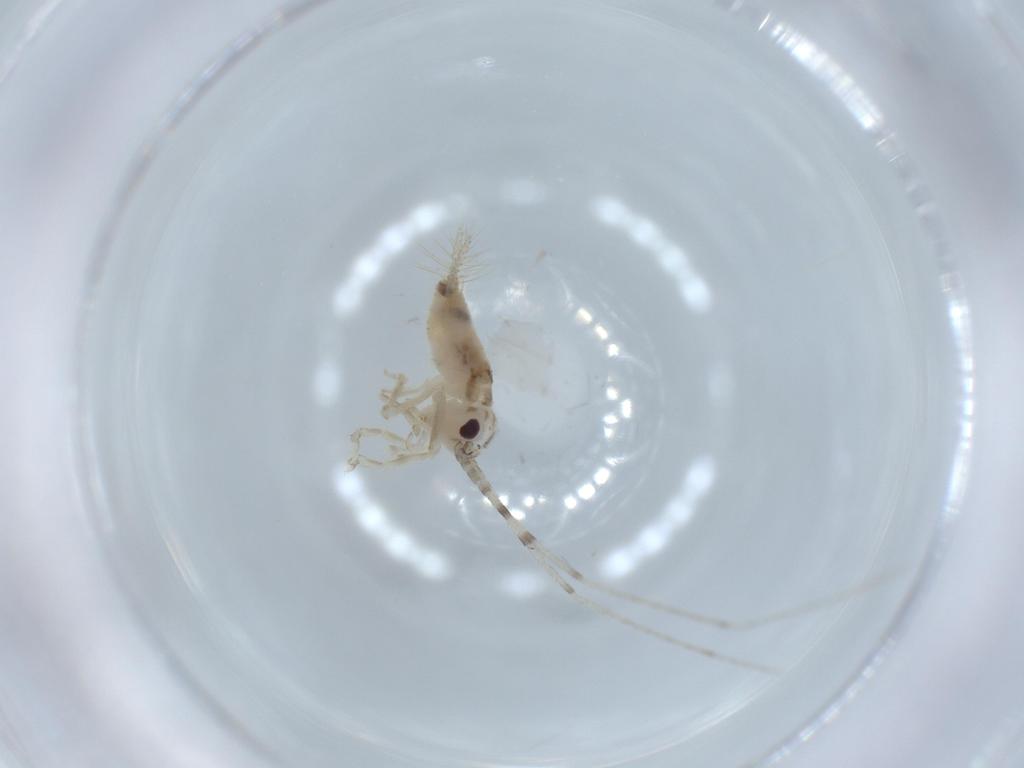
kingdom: Animalia
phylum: Arthropoda
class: Insecta
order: Orthoptera
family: Trigonidiidae
